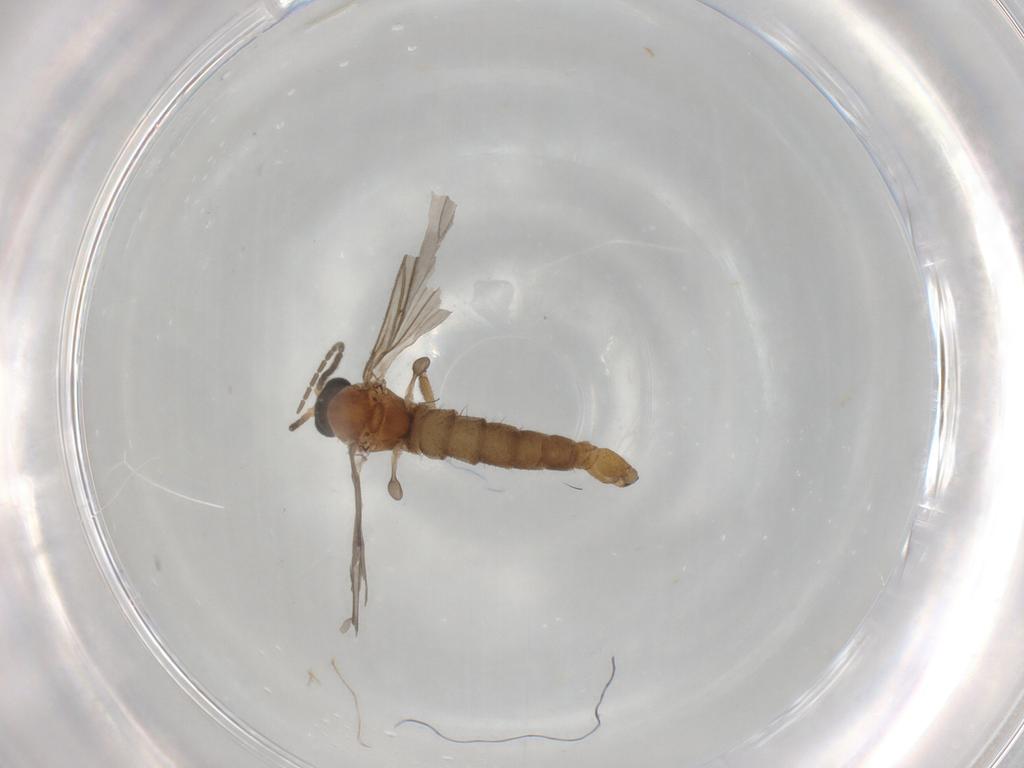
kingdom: Animalia
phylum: Arthropoda
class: Insecta
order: Diptera
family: Sciaridae
